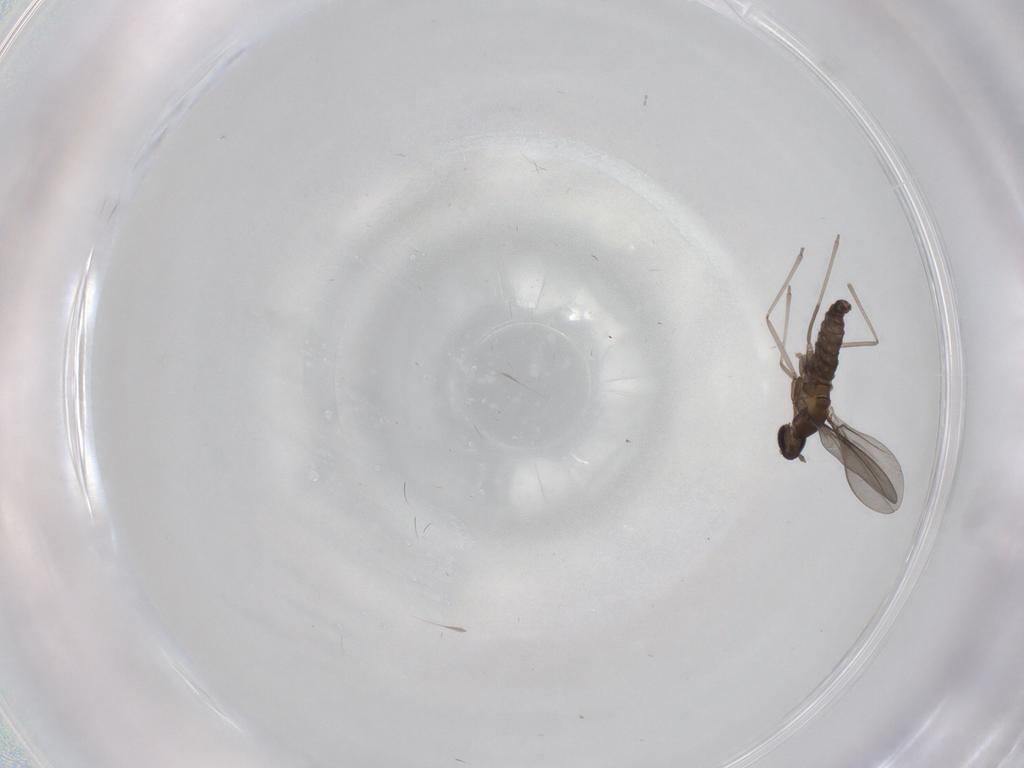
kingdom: Animalia
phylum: Arthropoda
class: Insecta
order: Diptera
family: Cecidomyiidae
